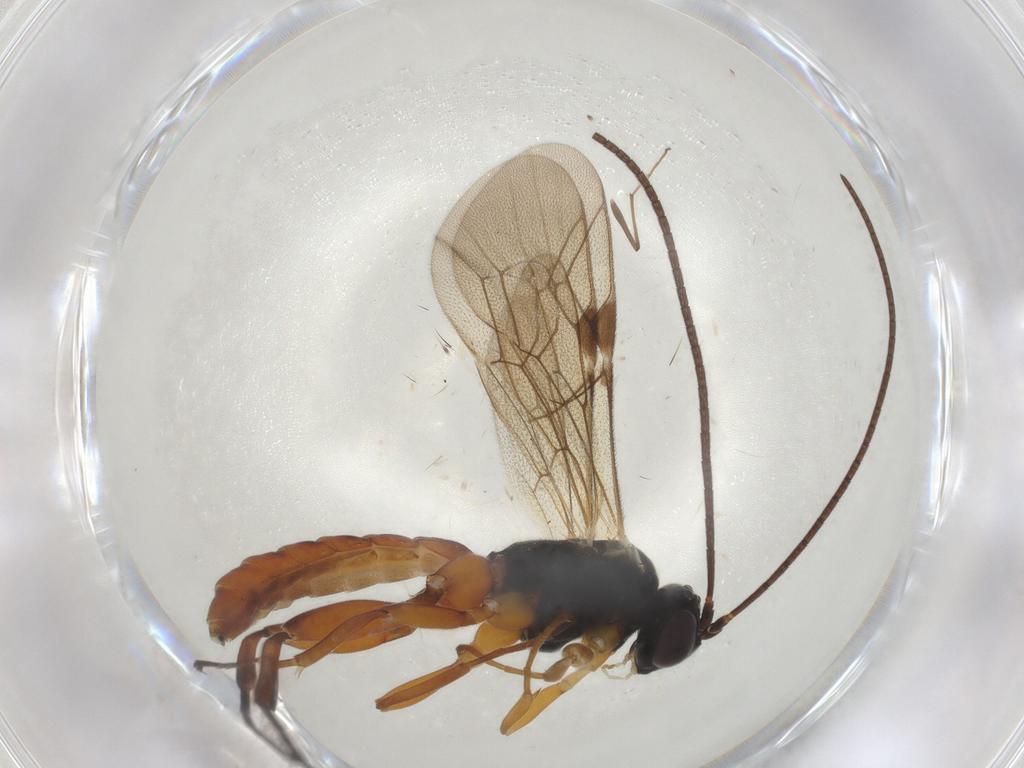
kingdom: Animalia
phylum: Arthropoda
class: Insecta
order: Hymenoptera
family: Ichneumonidae
